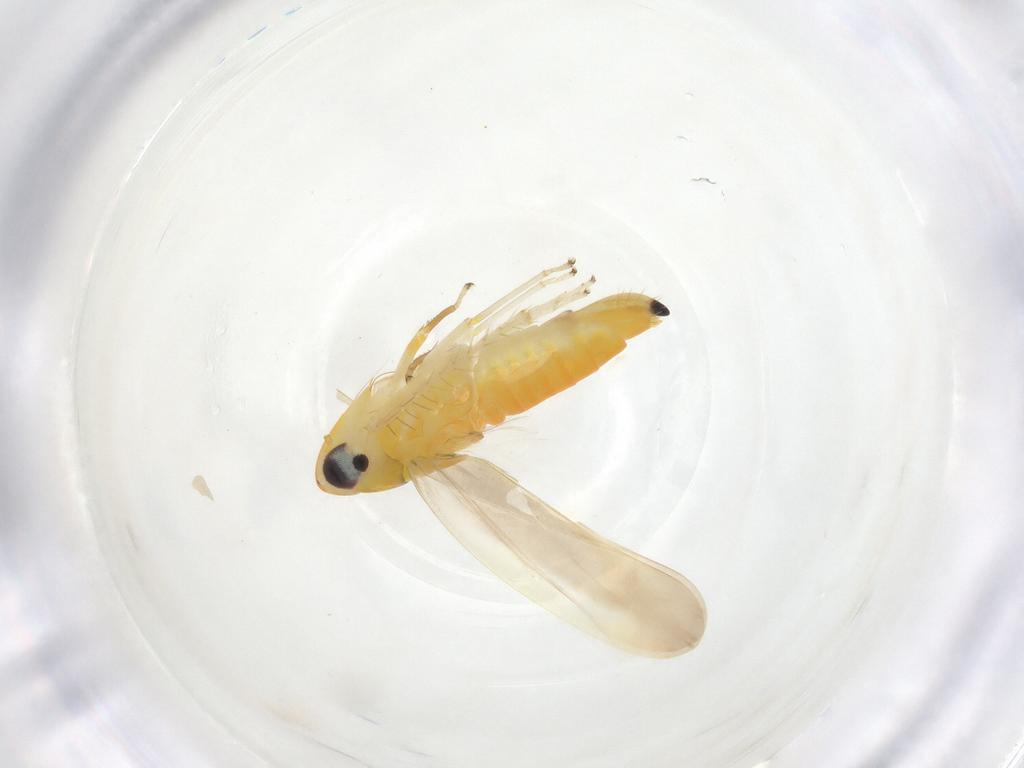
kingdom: Animalia
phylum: Arthropoda
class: Insecta
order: Hemiptera
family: Cicadellidae
